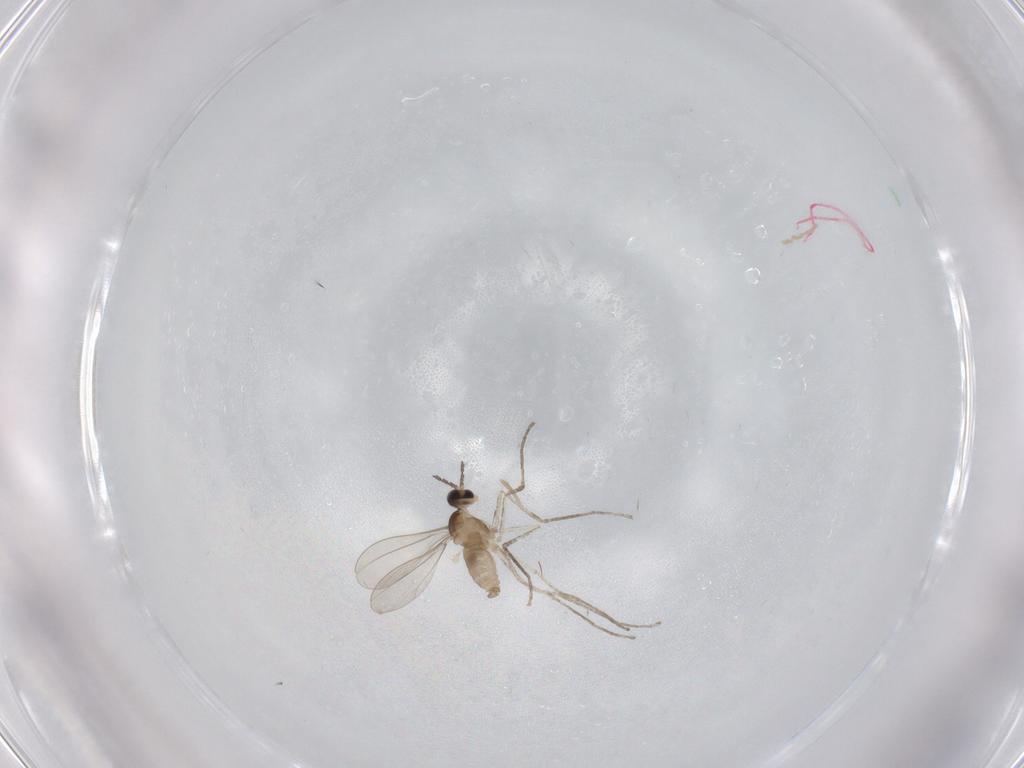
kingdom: Animalia
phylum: Arthropoda
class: Insecta
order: Diptera
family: Cecidomyiidae
